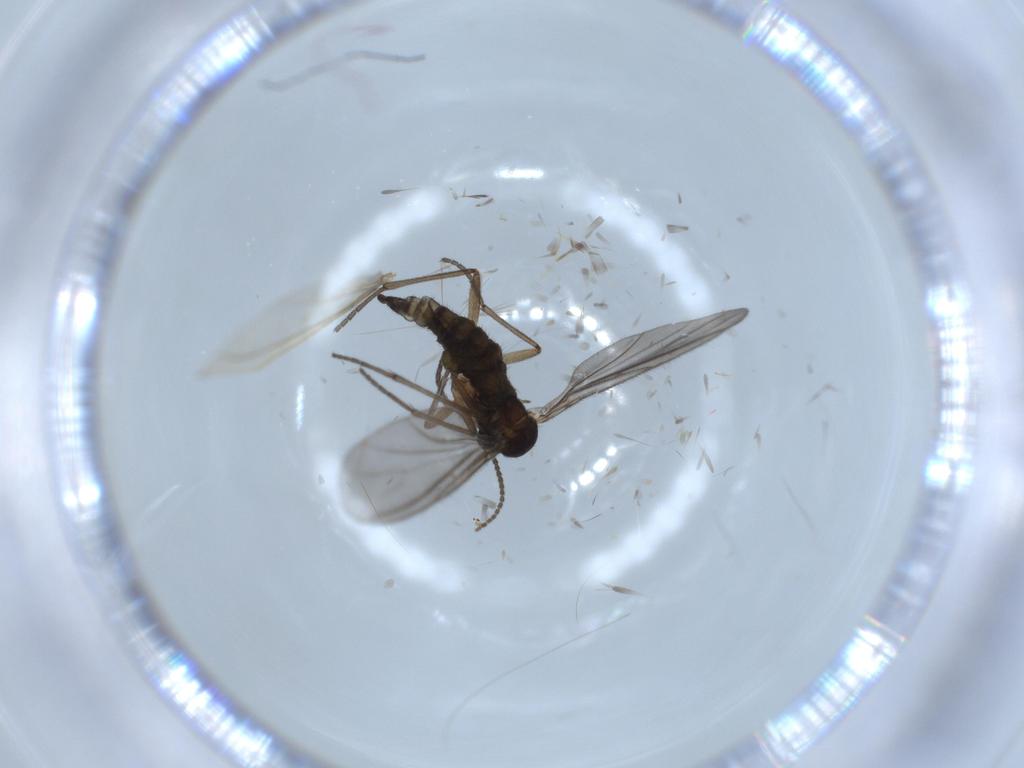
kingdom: Animalia
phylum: Arthropoda
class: Insecta
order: Diptera
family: Sciaridae
